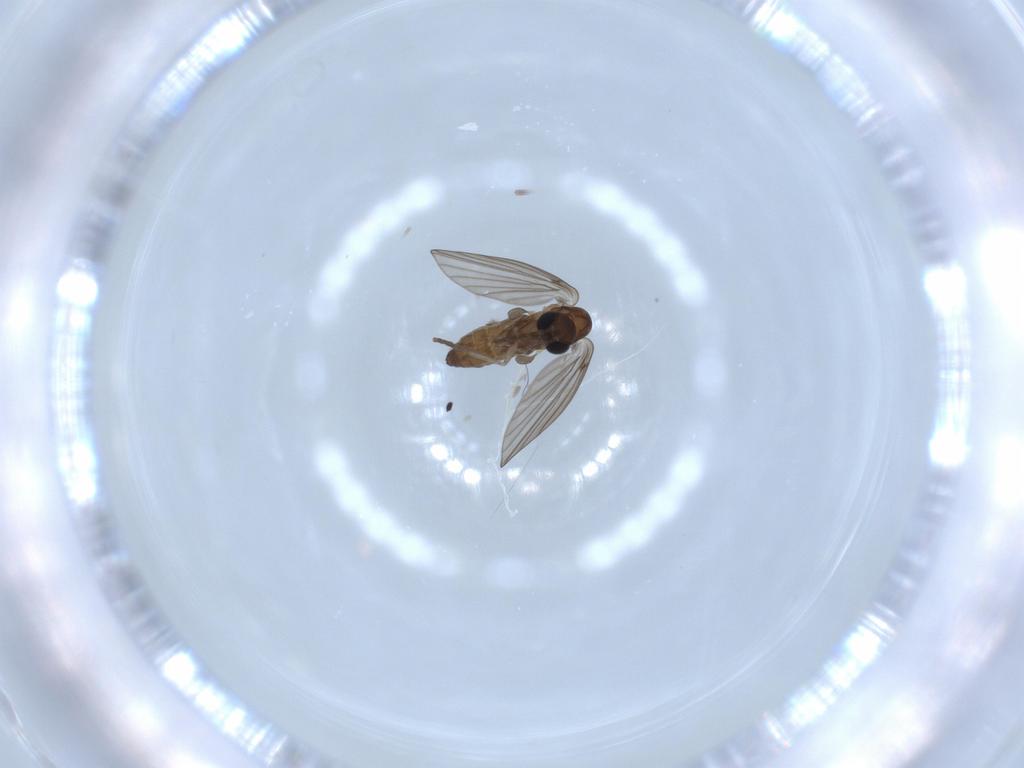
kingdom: Animalia
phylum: Arthropoda
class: Insecta
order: Diptera
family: Psychodidae
